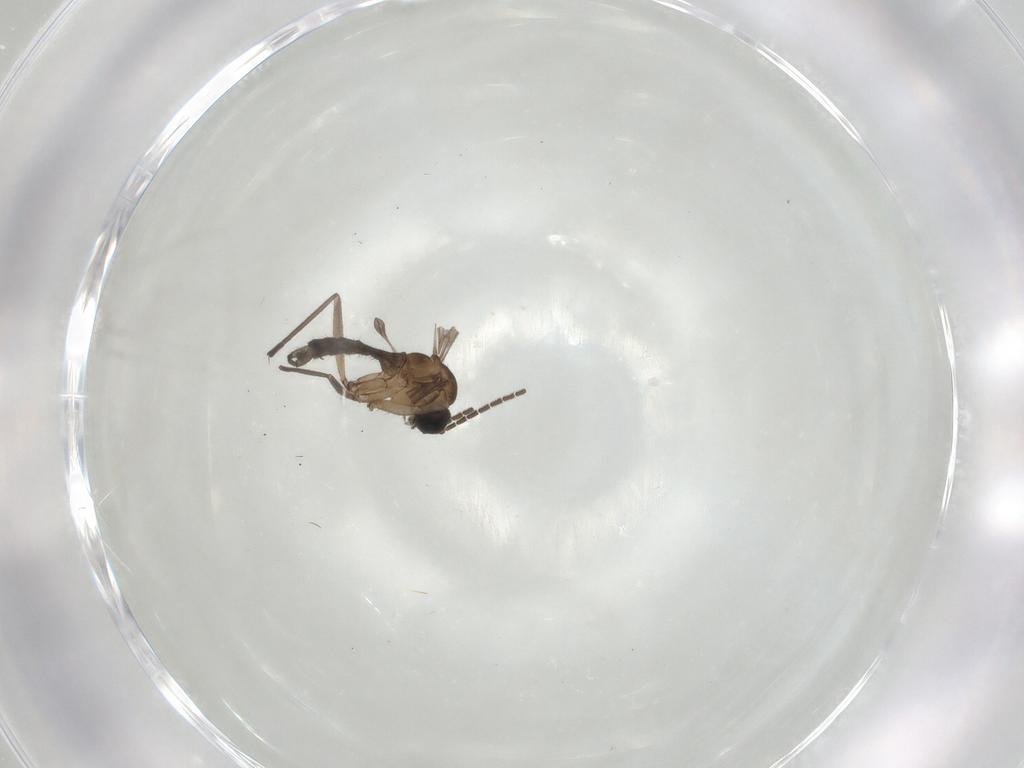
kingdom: Animalia
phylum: Arthropoda
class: Insecta
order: Diptera
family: Sciaridae
